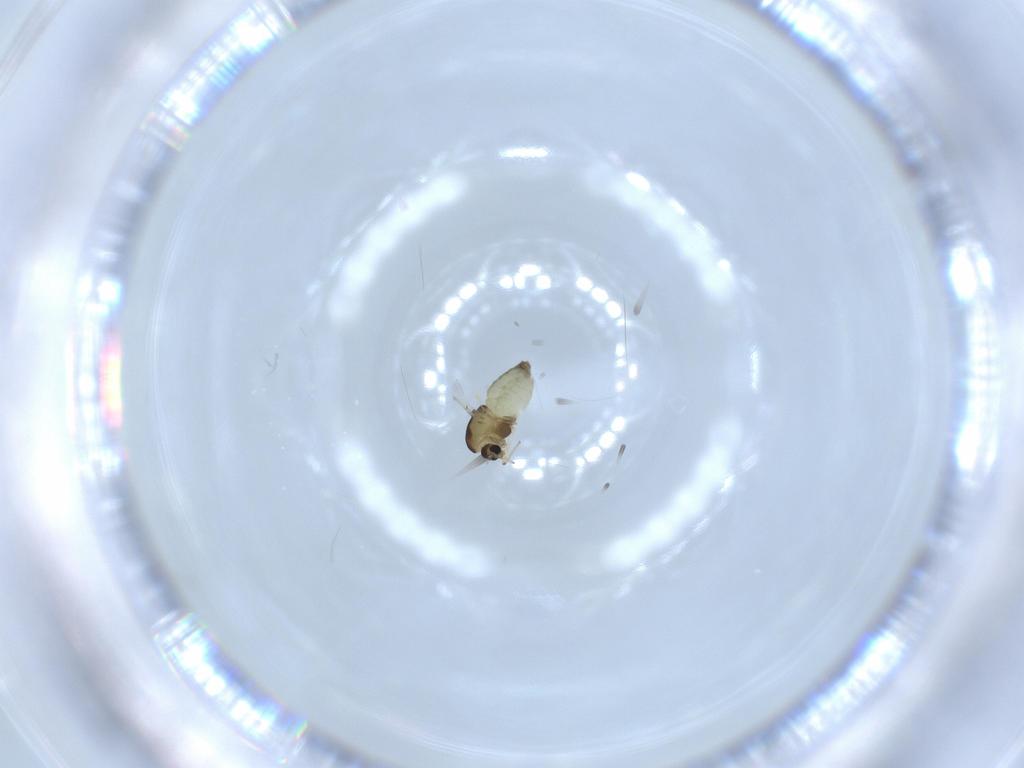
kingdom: Animalia
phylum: Arthropoda
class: Insecta
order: Diptera
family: Chironomidae
